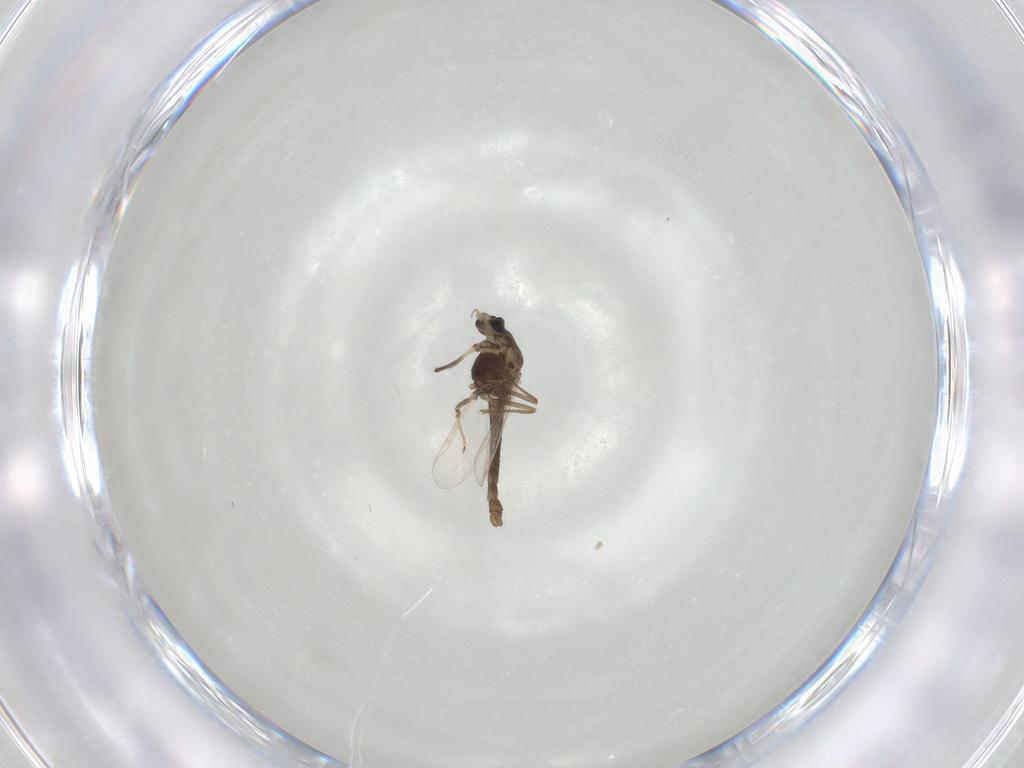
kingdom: Animalia
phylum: Arthropoda
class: Insecta
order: Diptera
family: Chironomidae
